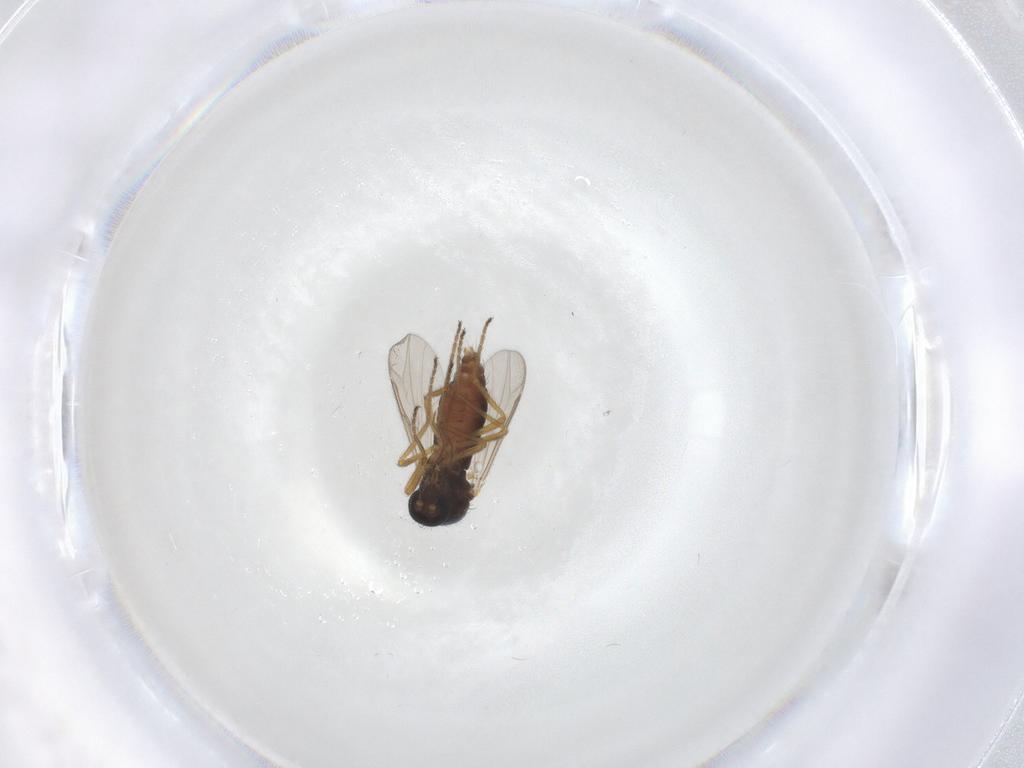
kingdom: Animalia
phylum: Arthropoda
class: Insecta
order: Diptera
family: Ceratopogonidae
